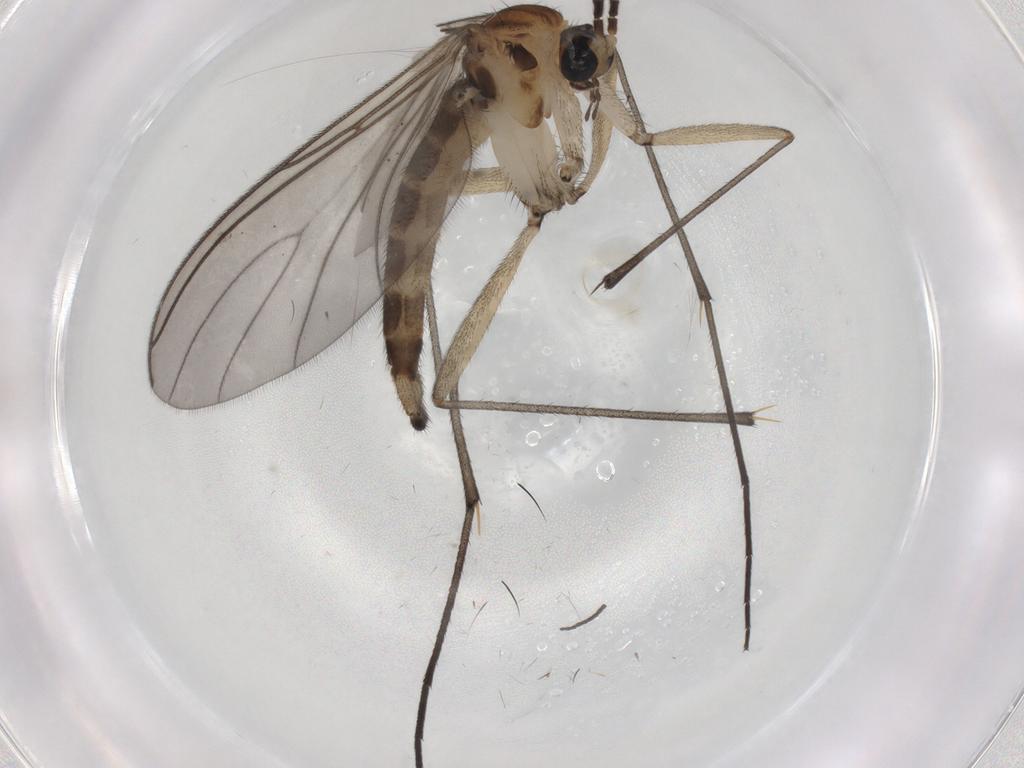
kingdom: Animalia
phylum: Arthropoda
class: Insecta
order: Diptera
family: Sciaridae
